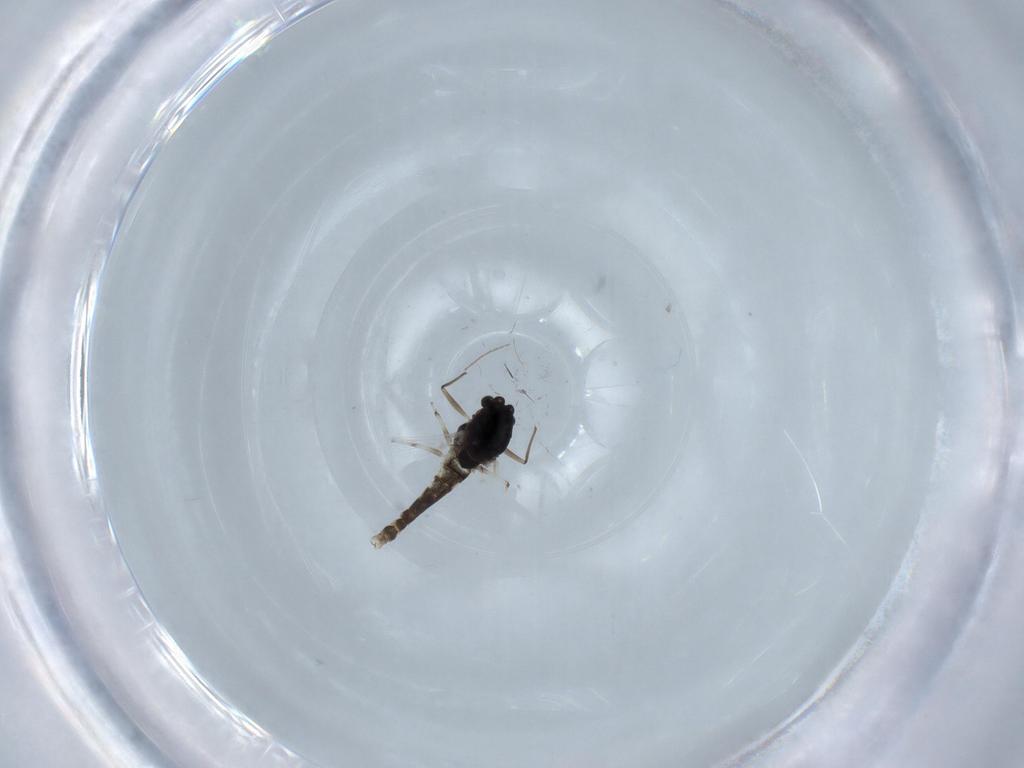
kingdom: Animalia
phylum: Arthropoda
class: Insecta
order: Diptera
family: Chironomidae
